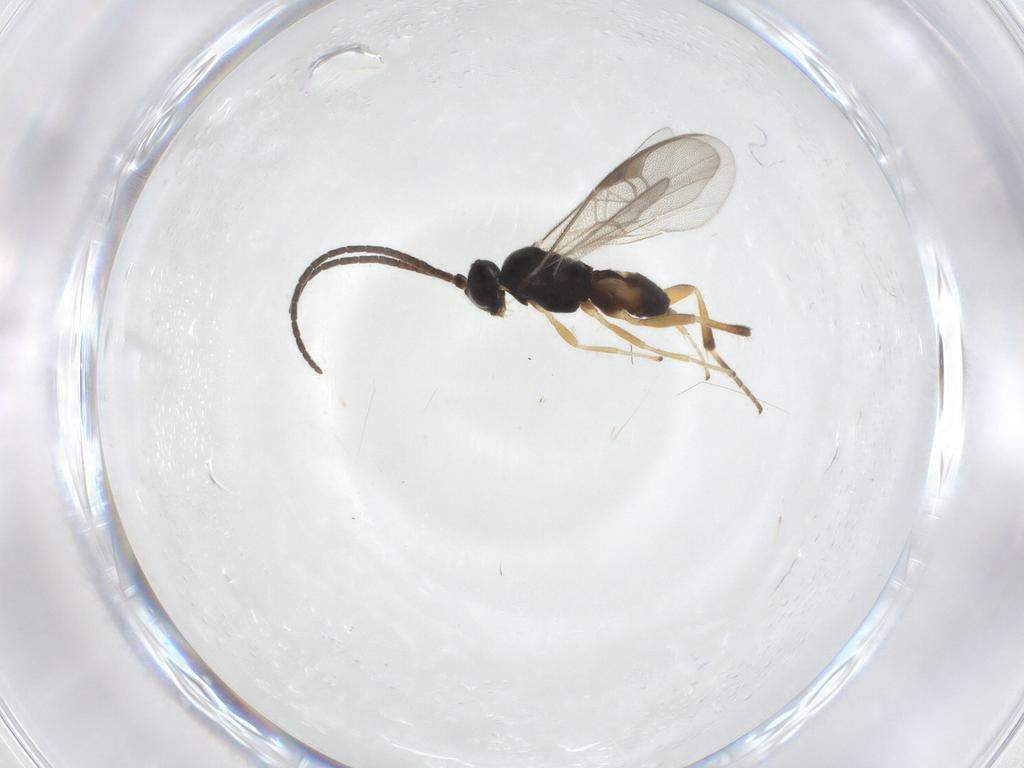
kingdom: Animalia
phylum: Arthropoda
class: Insecta
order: Hymenoptera
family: Braconidae
